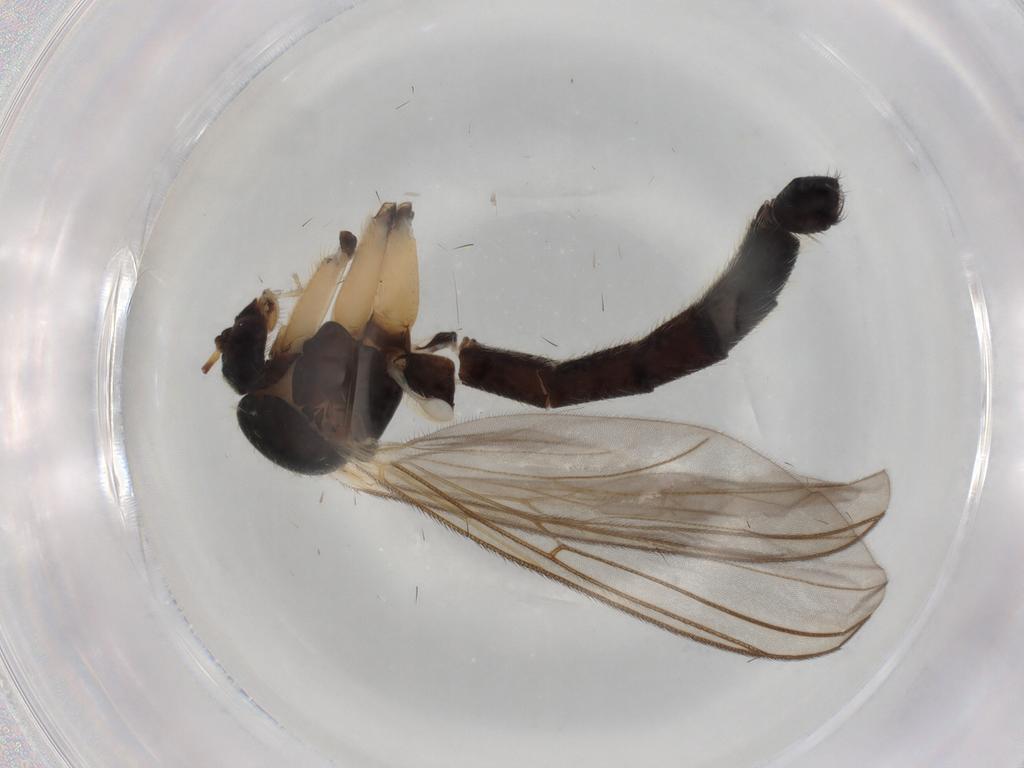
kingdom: Animalia
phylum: Arthropoda
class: Insecta
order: Diptera
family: Mycetophilidae
